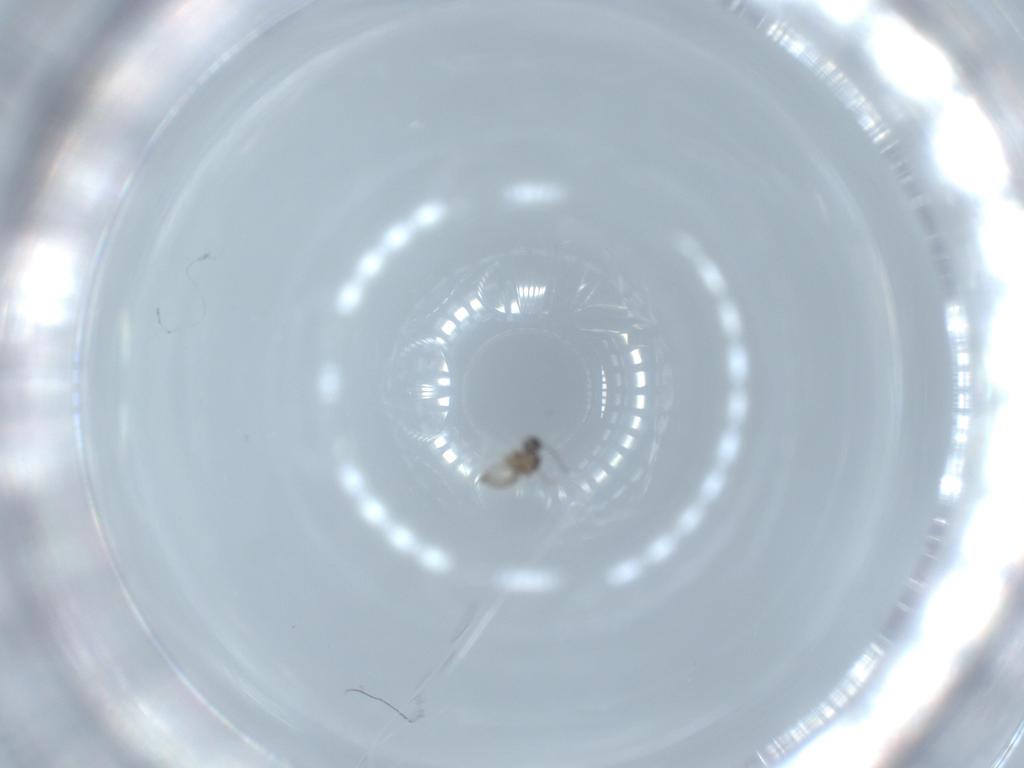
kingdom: Animalia
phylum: Arthropoda
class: Insecta
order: Diptera
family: Cecidomyiidae
